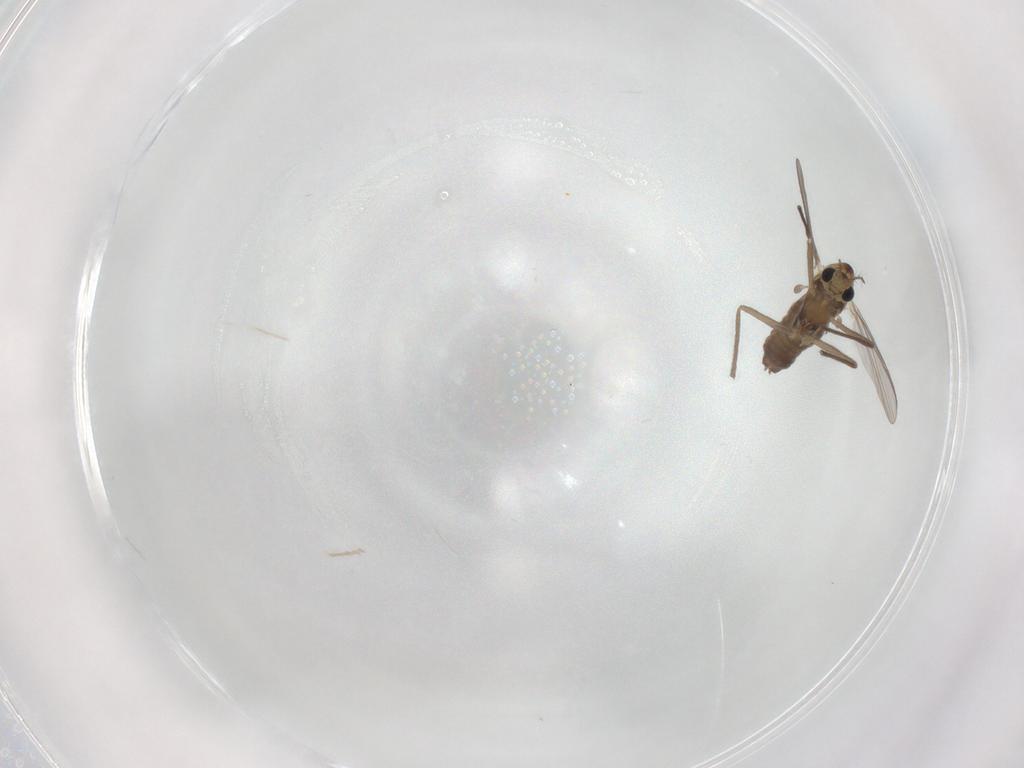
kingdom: Animalia
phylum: Arthropoda
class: Insecta
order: Diptera
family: Chironomidae
